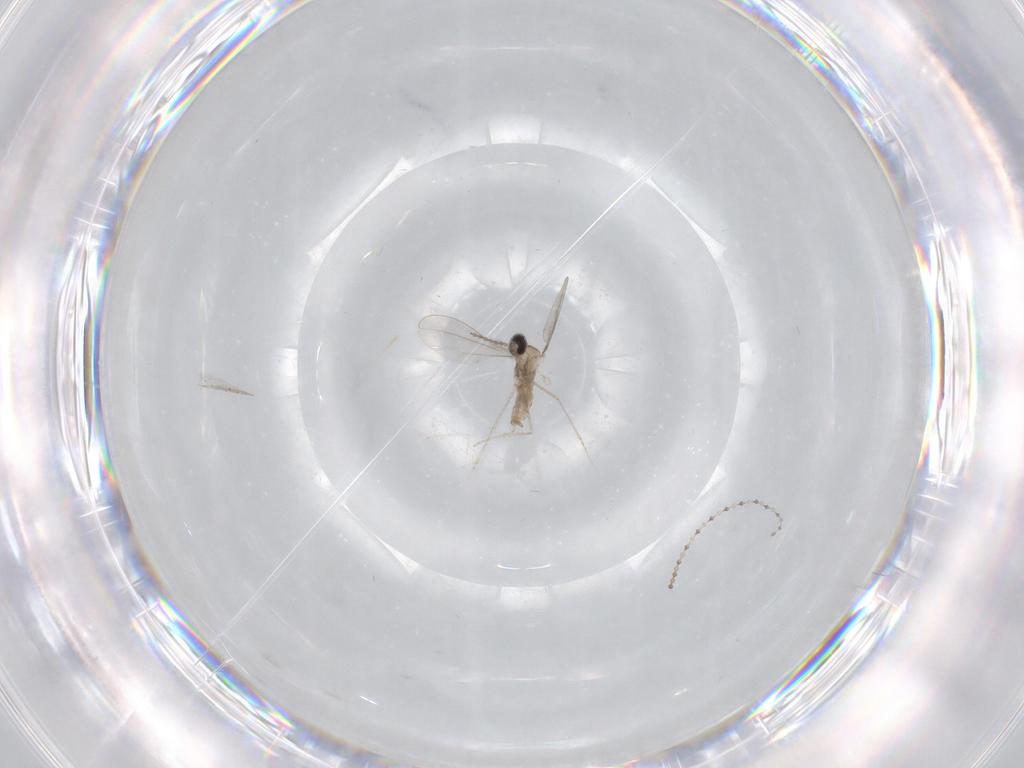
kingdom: Animalia
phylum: Arthropoda
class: Insecta
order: Diptera
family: Cecidomyiidae
